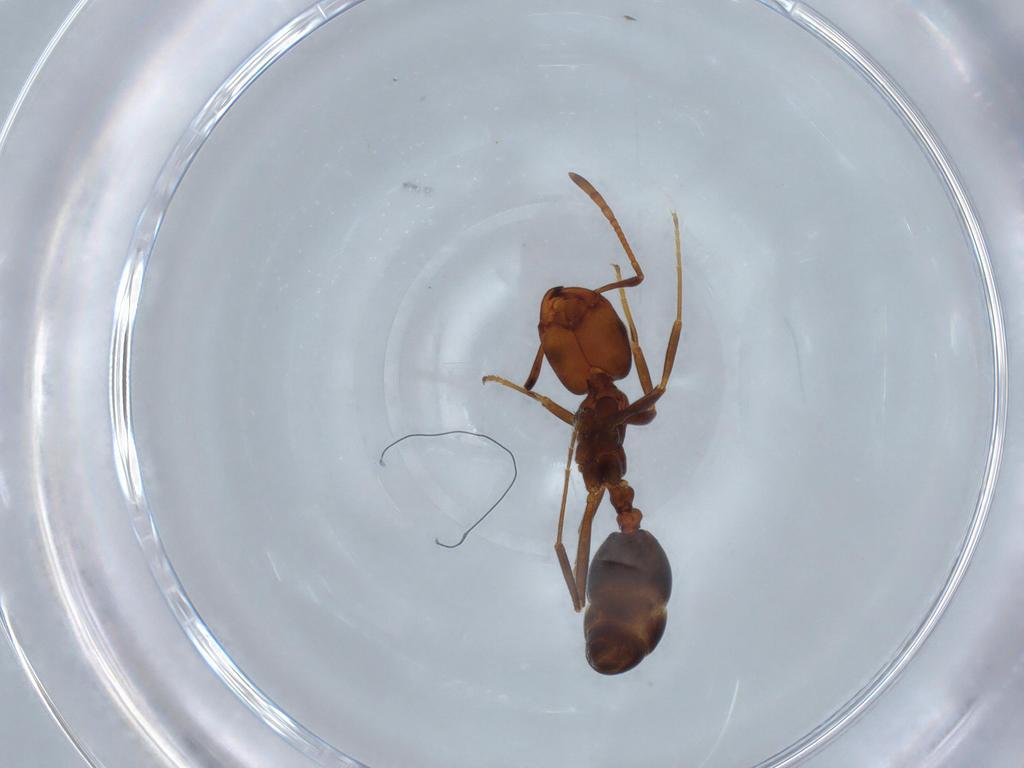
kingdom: Animalia
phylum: Arthropoda
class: Insecta
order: Hymenoptera
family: Formicidae
